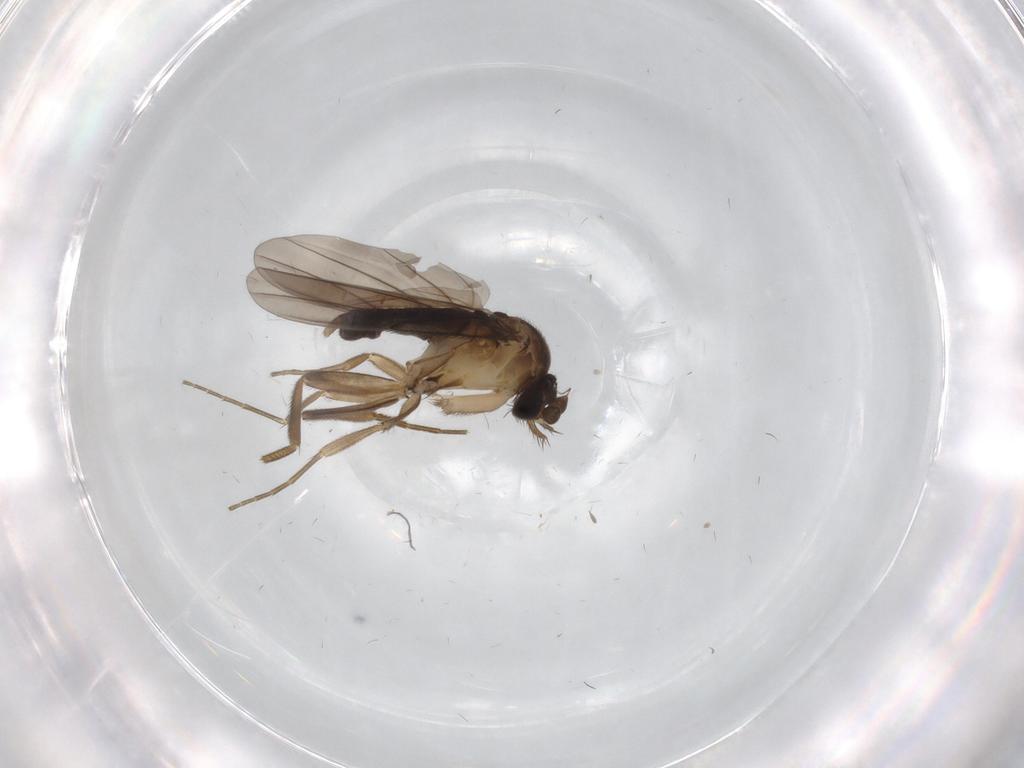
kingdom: Animalia
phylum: Arthropoda
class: Insecta
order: Diptera
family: Phoridae
